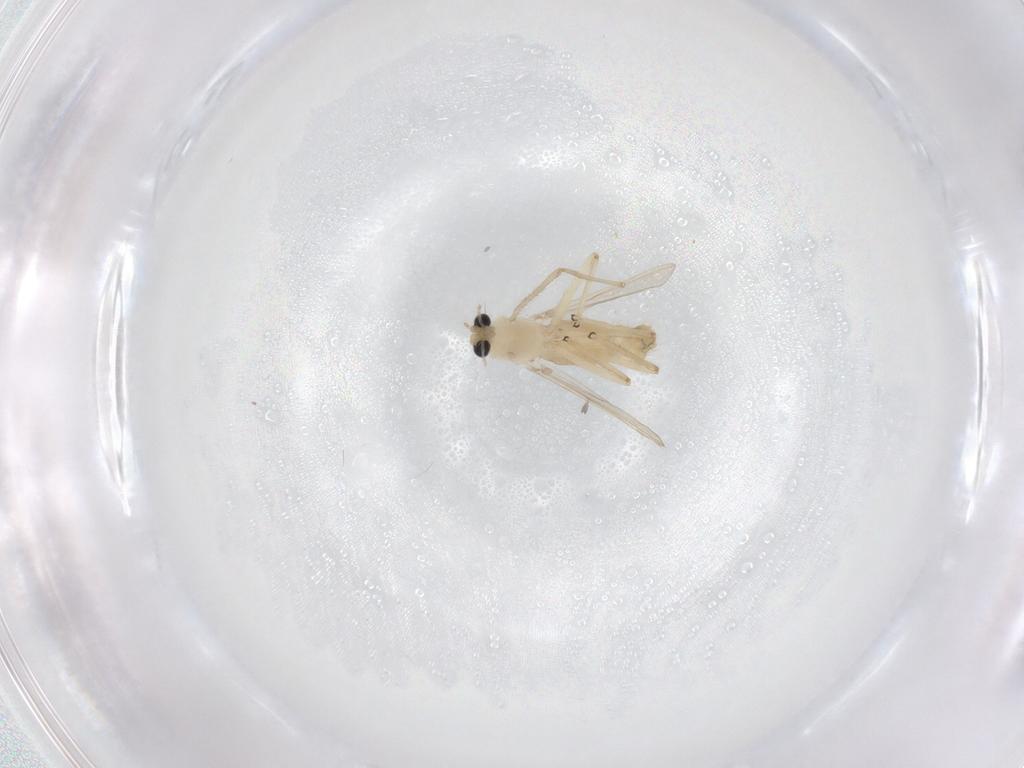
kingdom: Animalia
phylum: Arthropoda
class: Insecta
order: Diptera
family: Chironomidae
